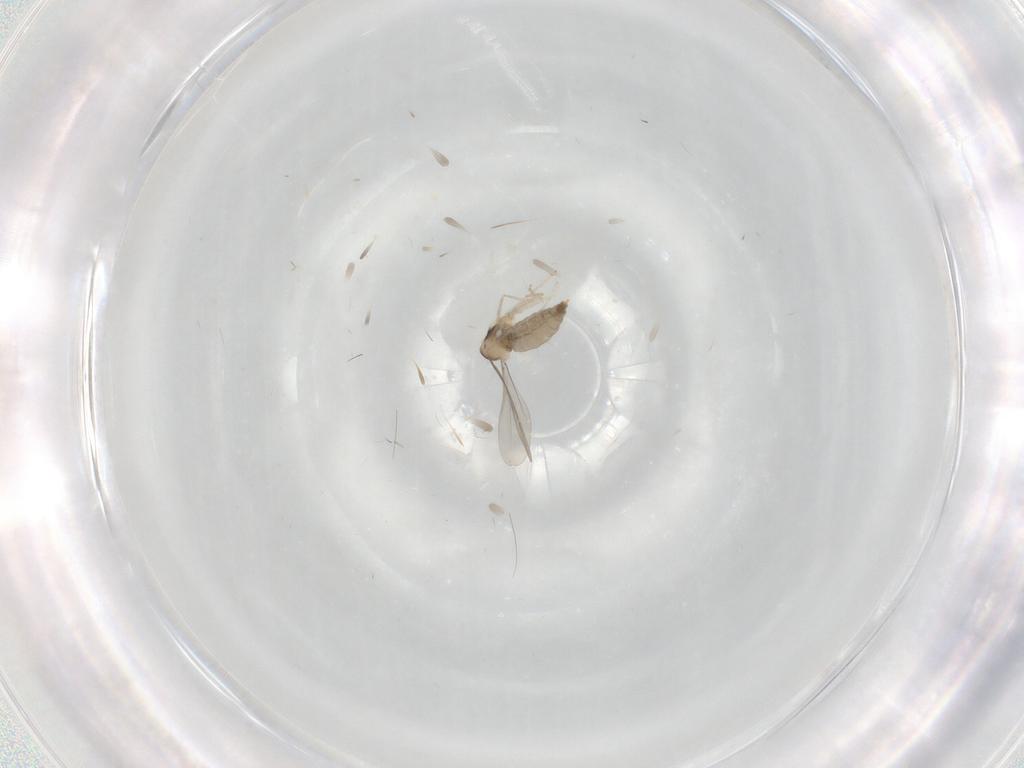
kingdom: Animalia
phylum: Arthropoda
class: Insecta
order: Diptera
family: Cecidomyiidae
